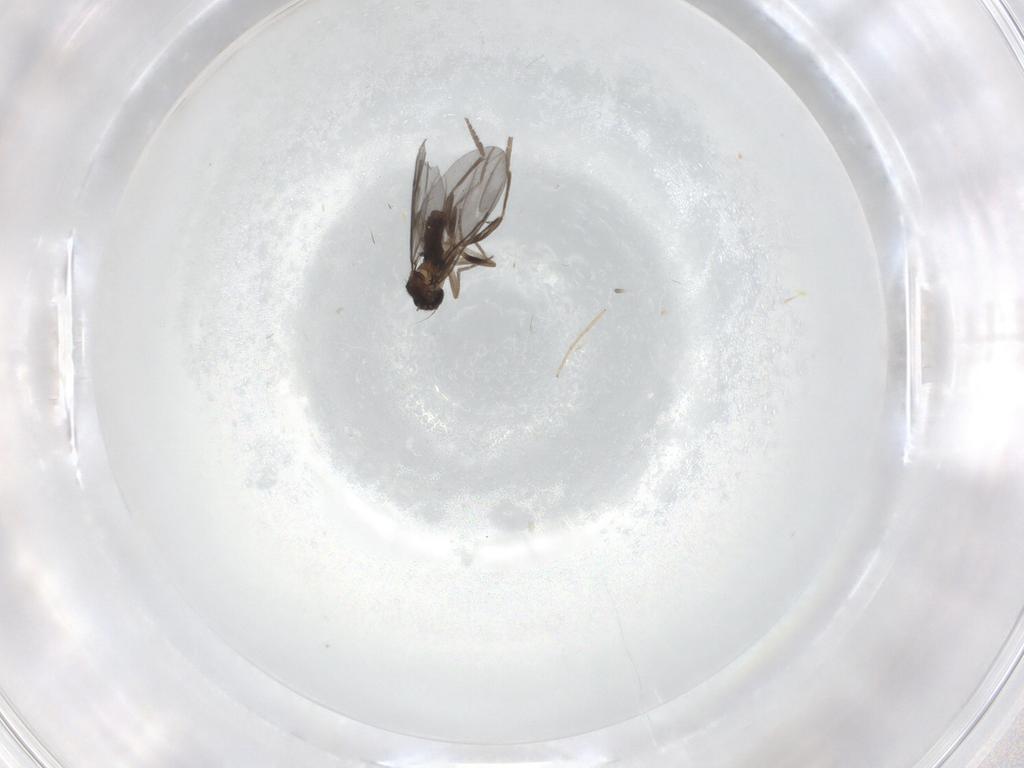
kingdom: Animalia
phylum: Arthropoda
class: Insecta
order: Diptera
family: Phoridae
